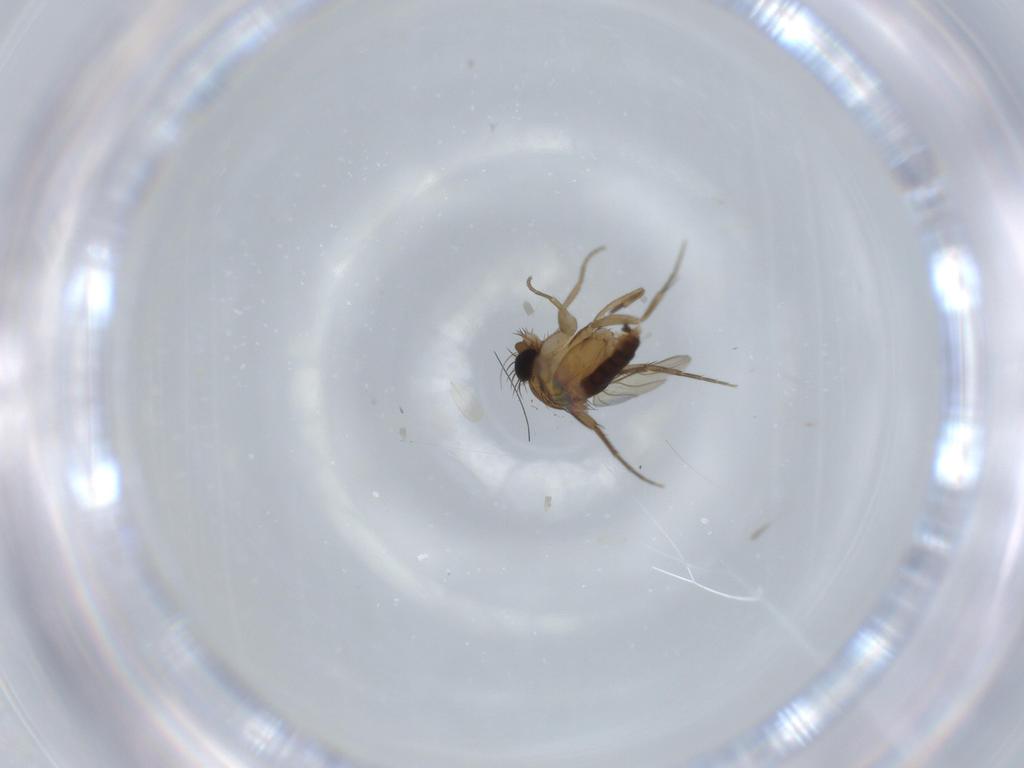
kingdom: Animalia
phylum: Arthropoda
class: Insecta
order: Diptera
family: Phoridae
